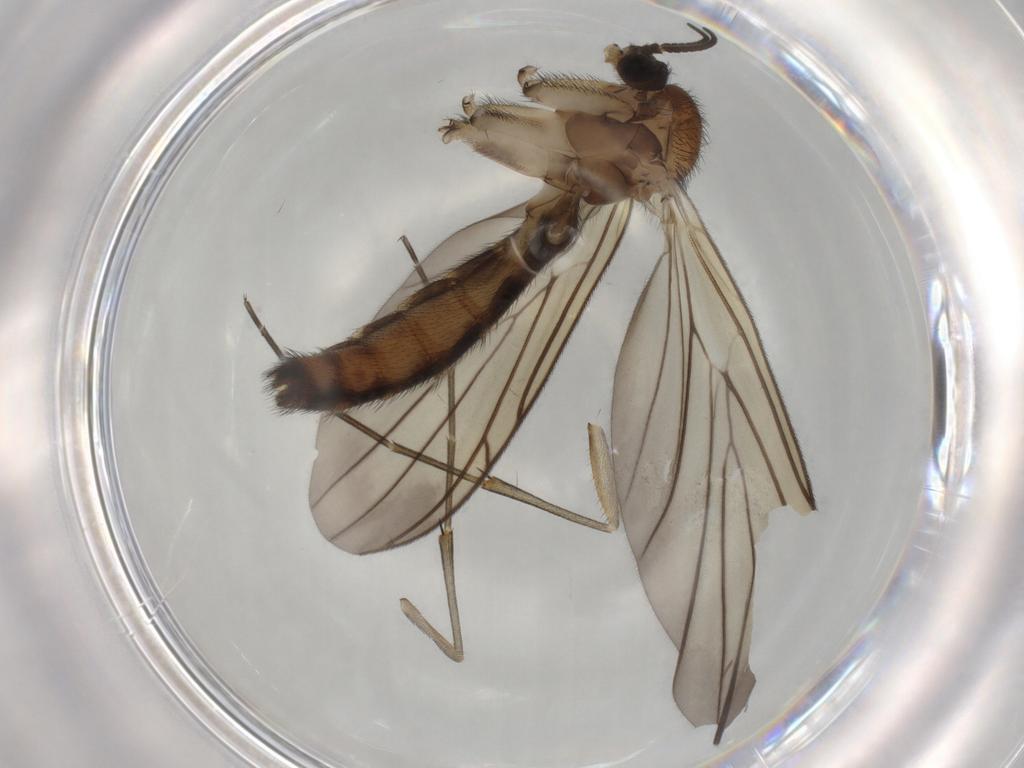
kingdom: Animalia
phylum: Arthropoda
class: Insecta
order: Diptera
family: Keroplatidae
